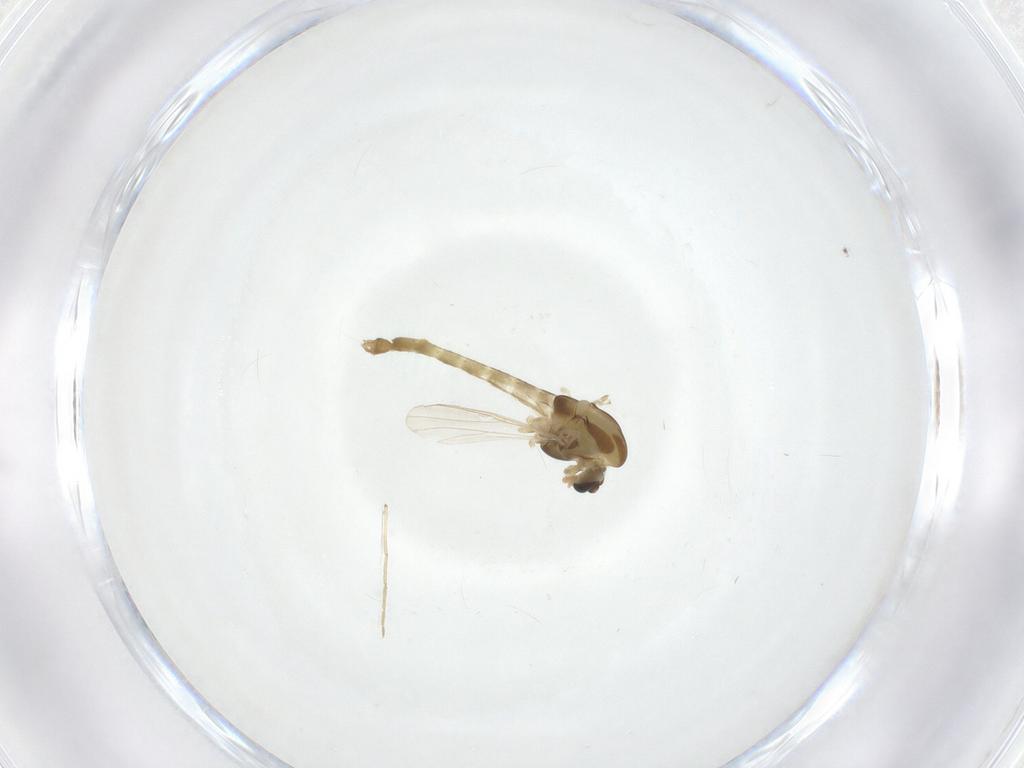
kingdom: Animalia
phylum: Arthropoda
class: Insecta
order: Diptera
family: Chironomidae
